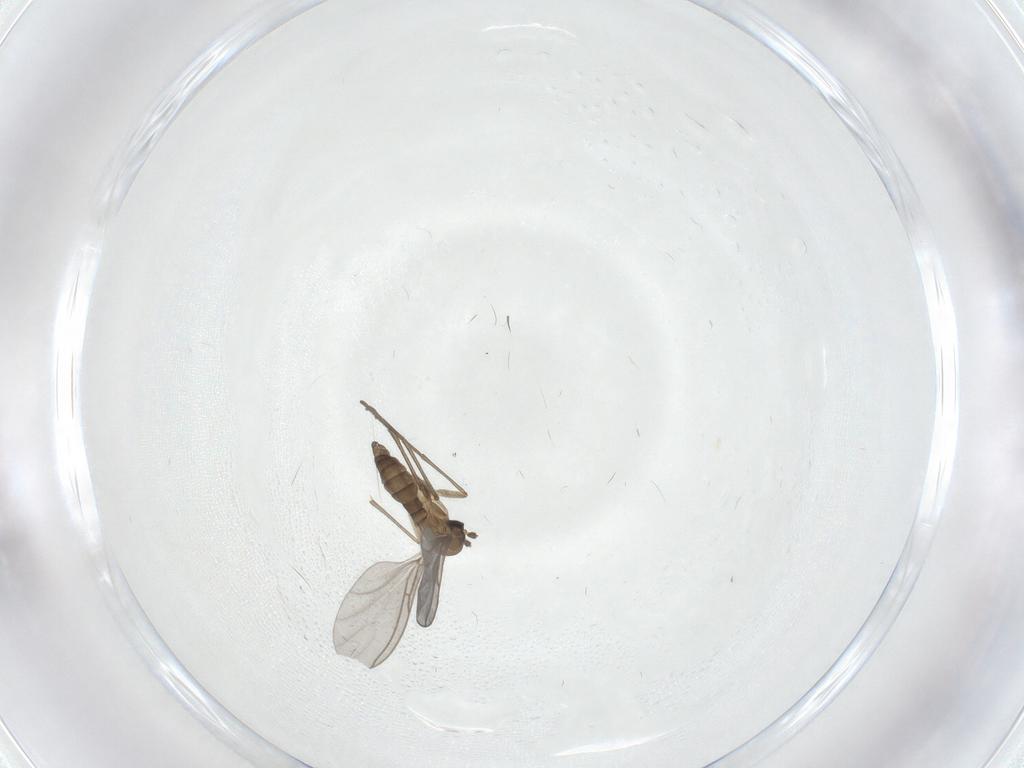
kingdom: Animalia
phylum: Arthropoda
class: Insecta
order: Diptera
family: Sciaridae
